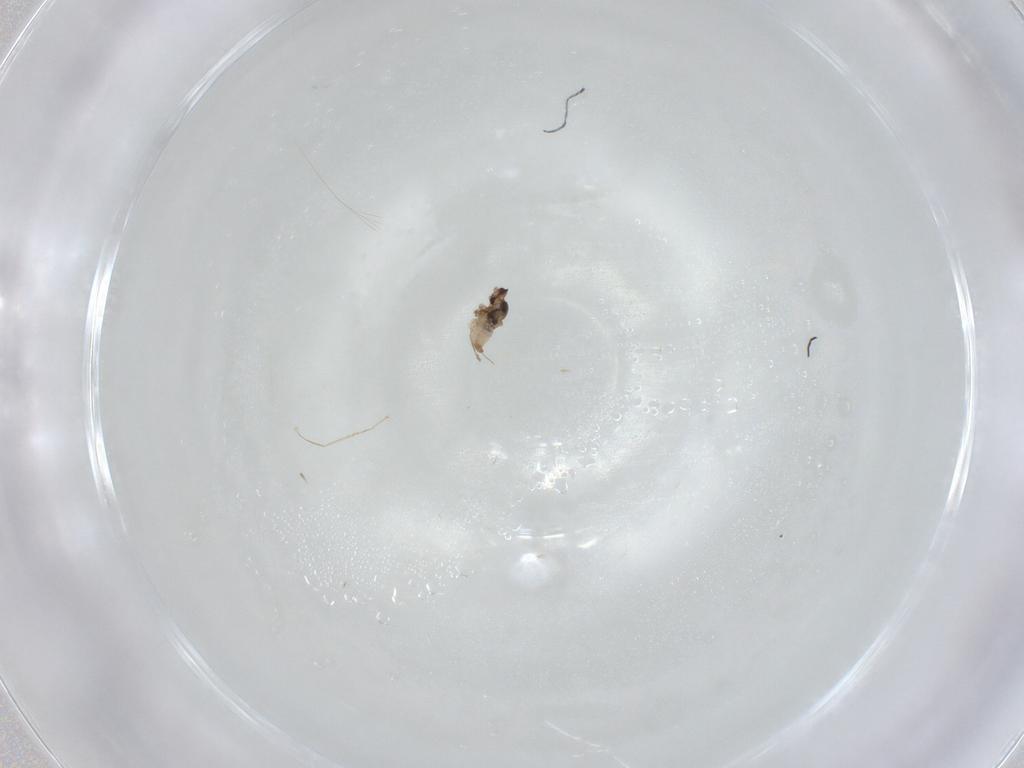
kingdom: Animalia
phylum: Arthropoda
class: Insecta
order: Diptera
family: Cecidomyiidae
